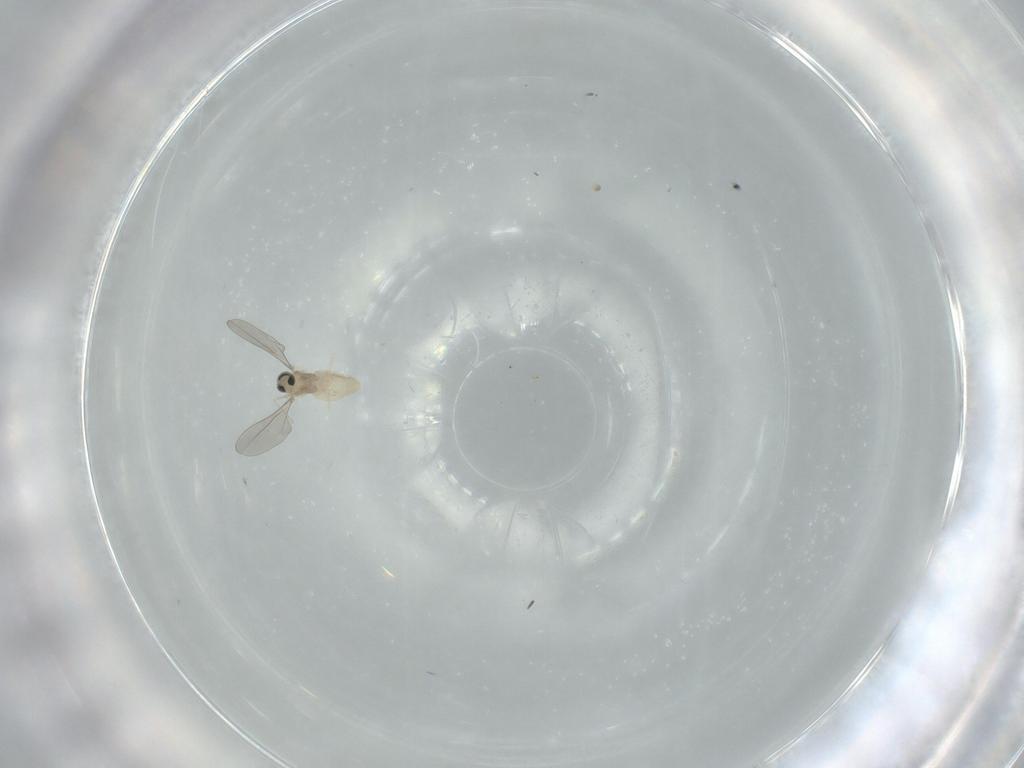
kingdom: Animalia
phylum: Arthropoda
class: Insecta
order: Diptera
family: Cecidomyiidae
